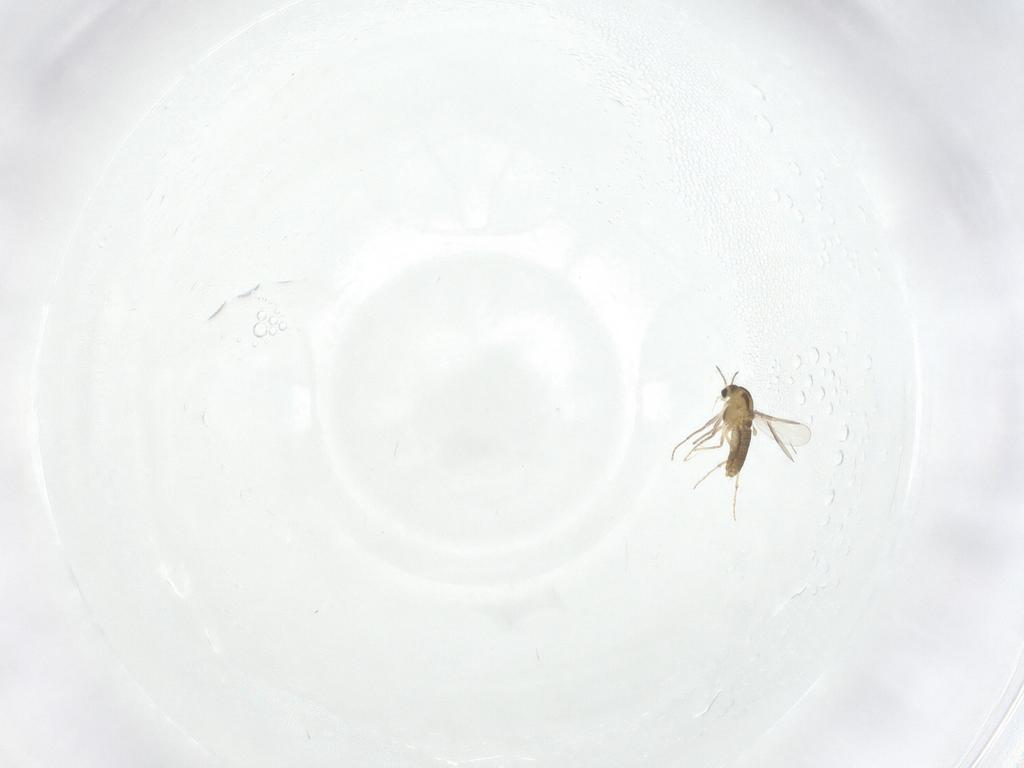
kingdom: Animalia
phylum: Arthropoda
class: Insecta
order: Diptera
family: Chironomidae
